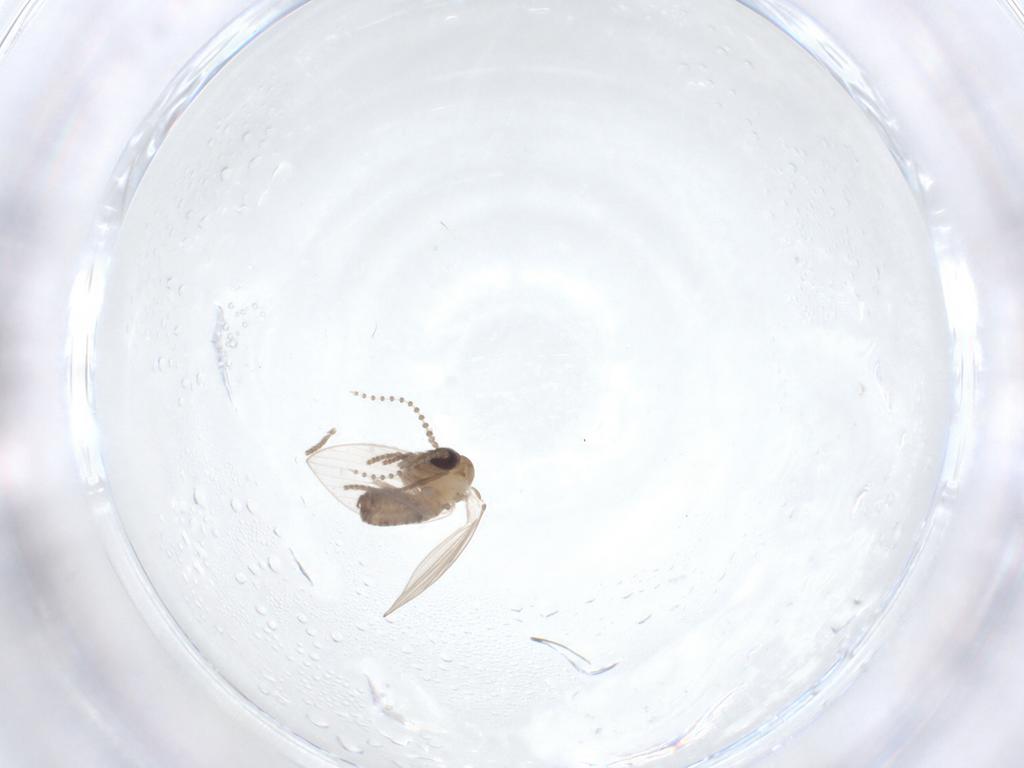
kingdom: Animalia
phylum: Arthropoda
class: Insecta
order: Diptera
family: Psychodidae
